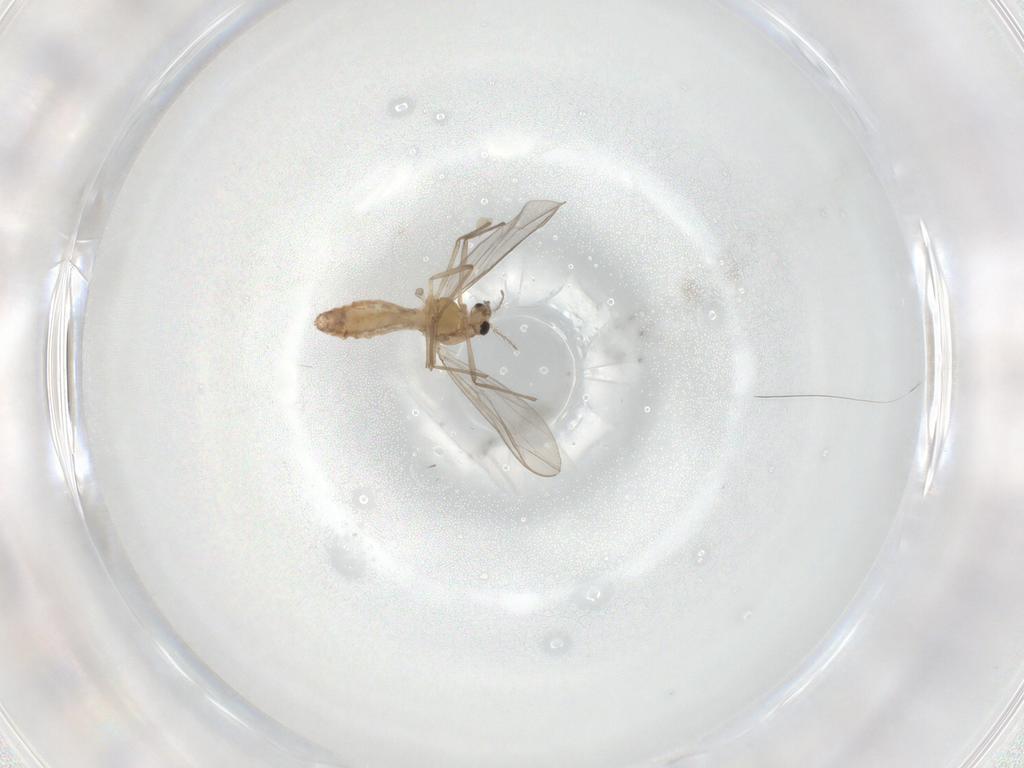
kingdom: Animalia
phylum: Arthropoda
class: Insecta
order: Diptera
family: Chironomidae
